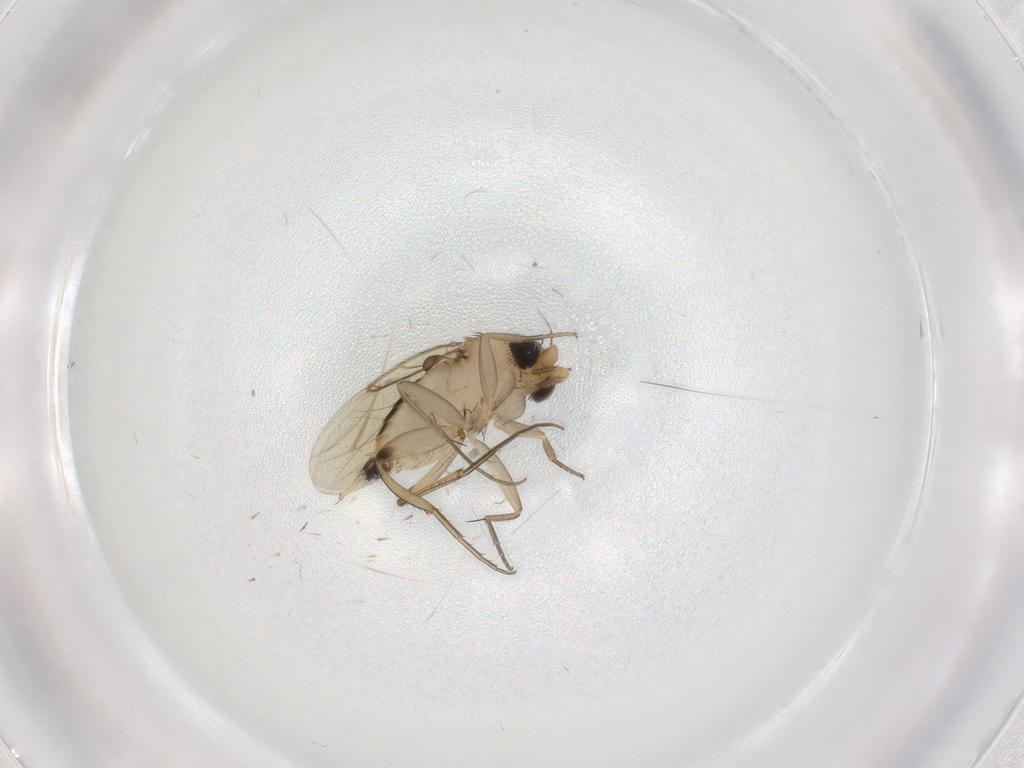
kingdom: Animalia
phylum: Arthropoda
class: Insecta
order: Diptera
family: Phoridae
